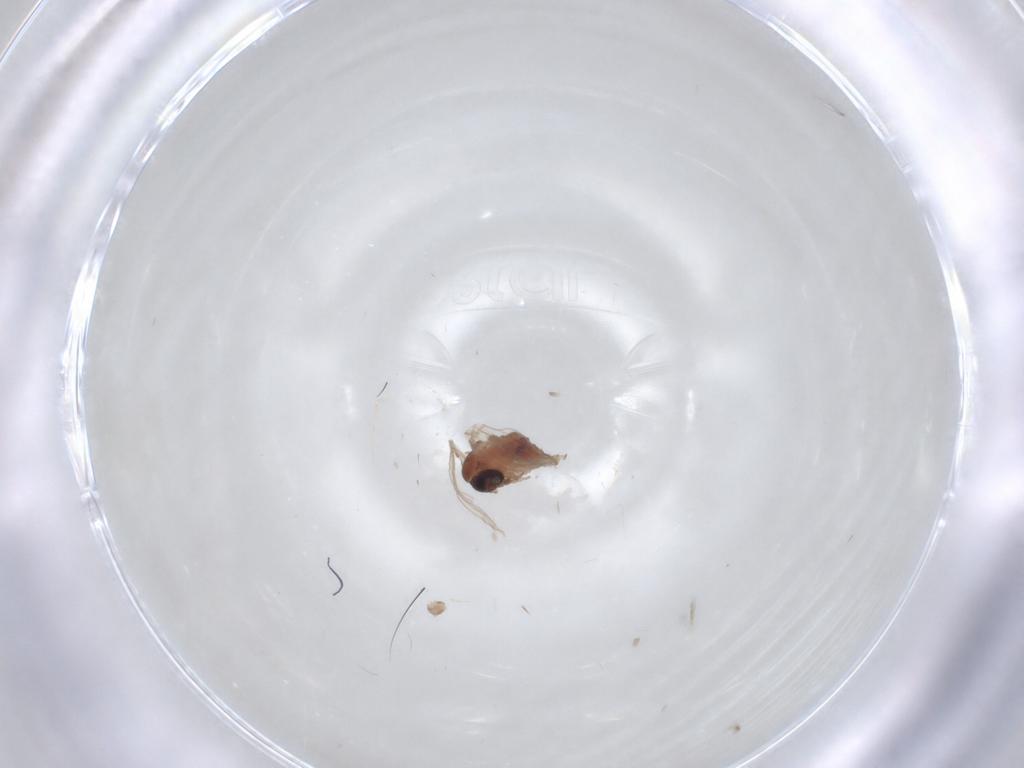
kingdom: Animalia
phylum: Arthropoda
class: Insecta
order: Diptera
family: Psychodidae
